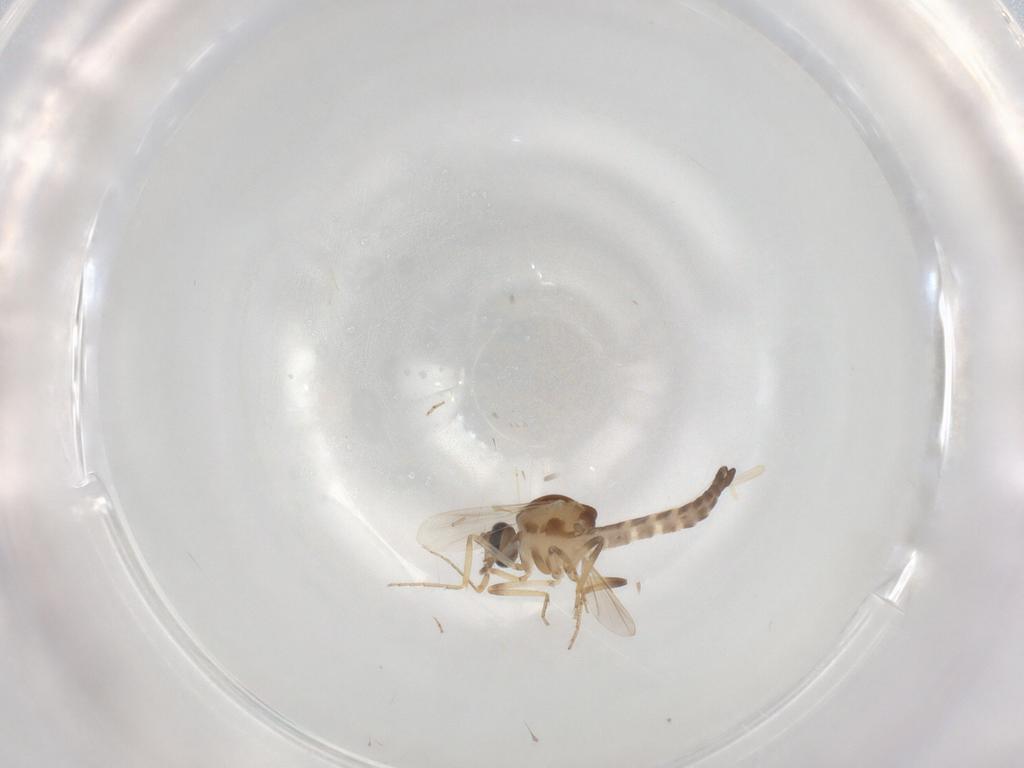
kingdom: Animalia
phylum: Arthropoda
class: Insecta
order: Diptera
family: Ceratopogonidae
